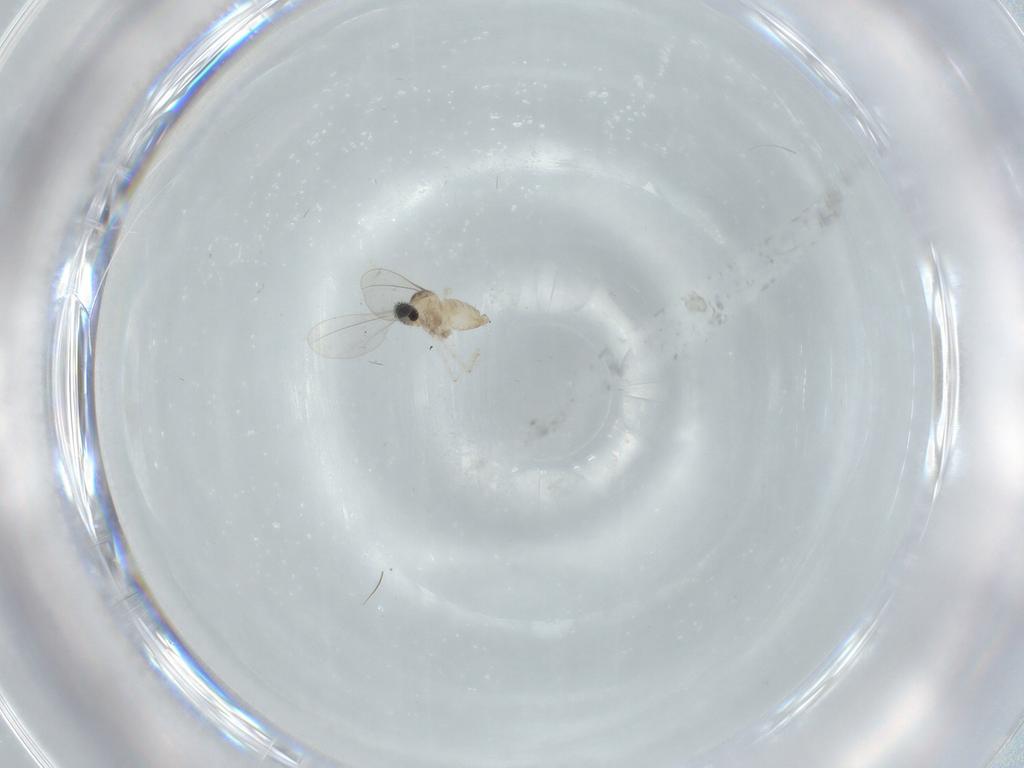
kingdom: Animalia
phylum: Arthropoda
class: Insecta
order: Diptera
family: Cecidomyiidae
